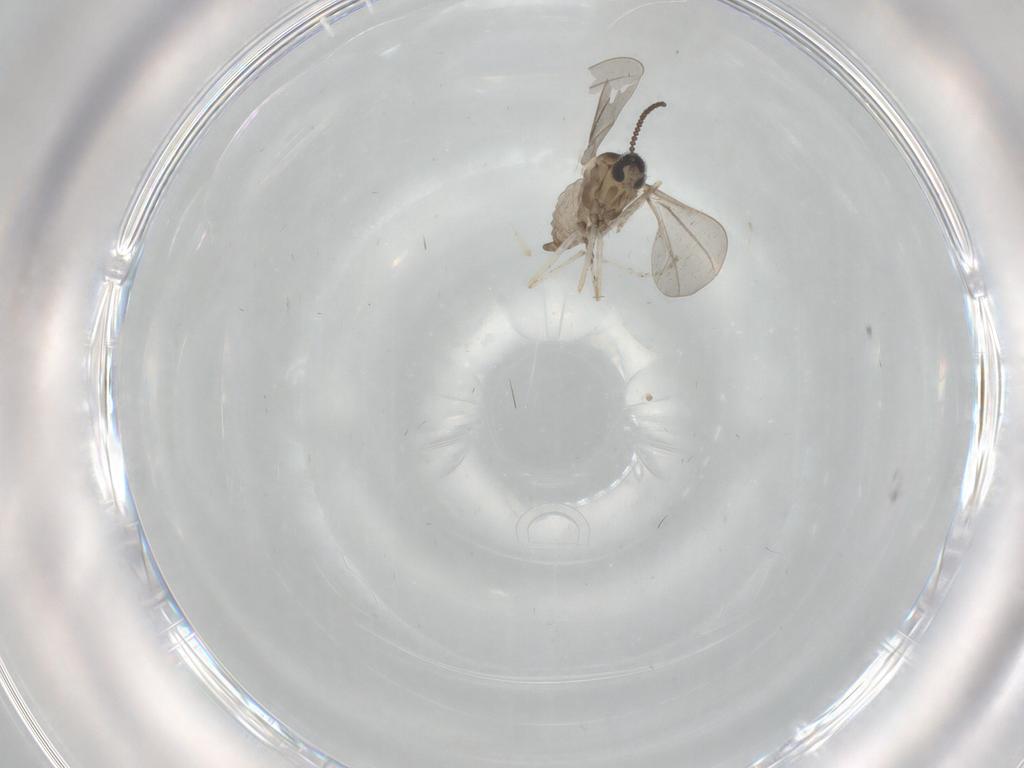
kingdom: Animalia
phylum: Arthropoda
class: Insecta
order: Diptera
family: Cecidomyiidae
